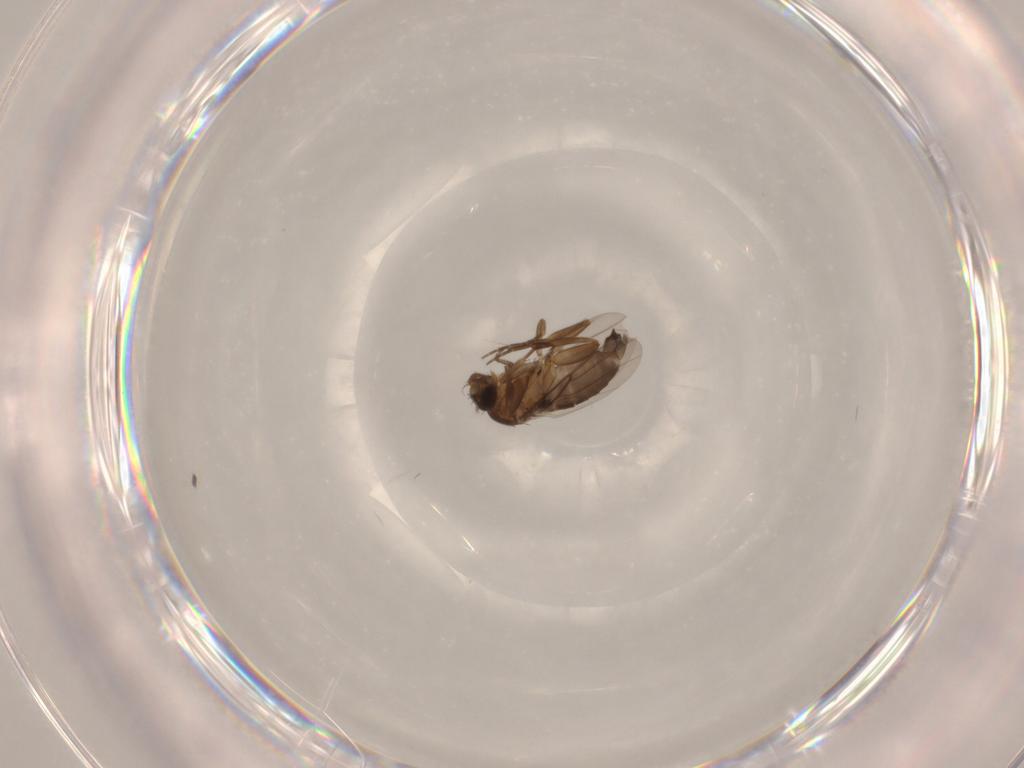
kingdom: Animalia
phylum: Arthropoda
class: Insecta
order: Diptera
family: Phoridae
